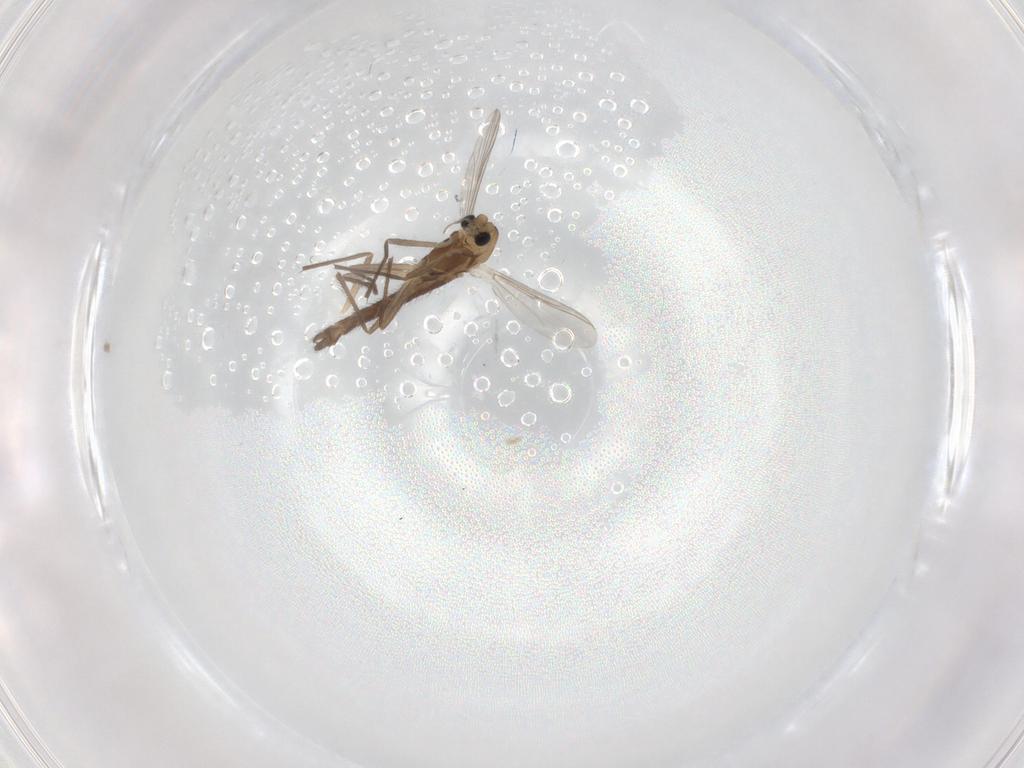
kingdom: Animalia
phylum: Arthropoda
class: Insecta
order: Diptera
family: Chironomidae
